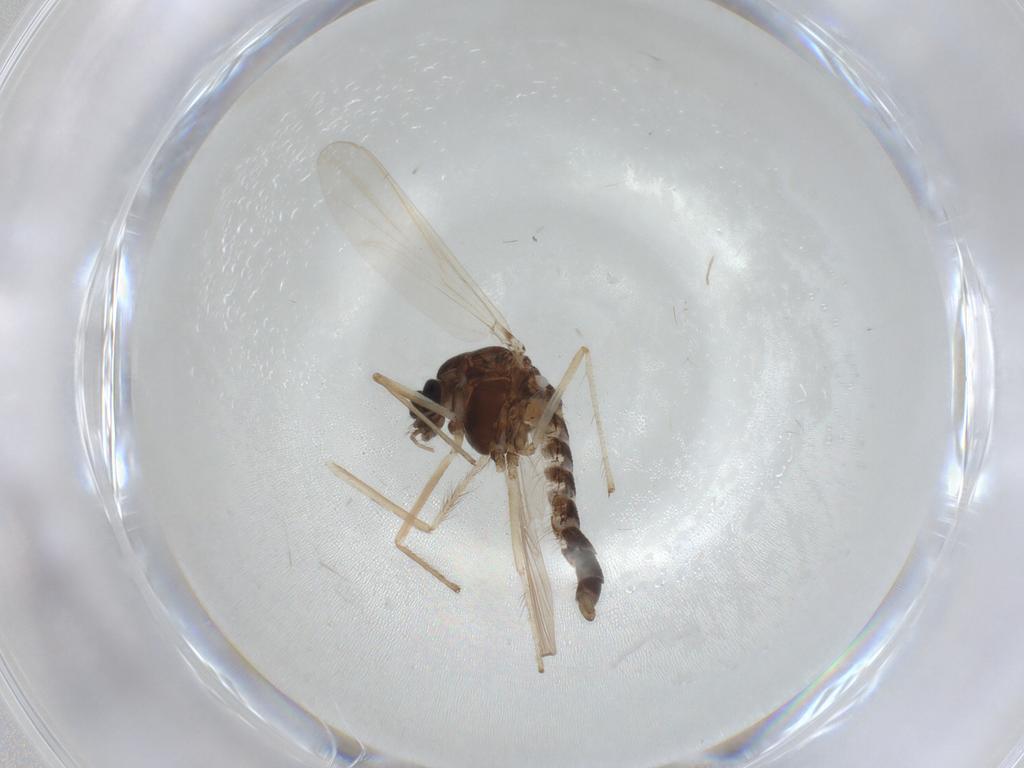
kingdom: Animalia
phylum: Arthropoda
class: Insecta
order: Diptera
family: Chironomidae
